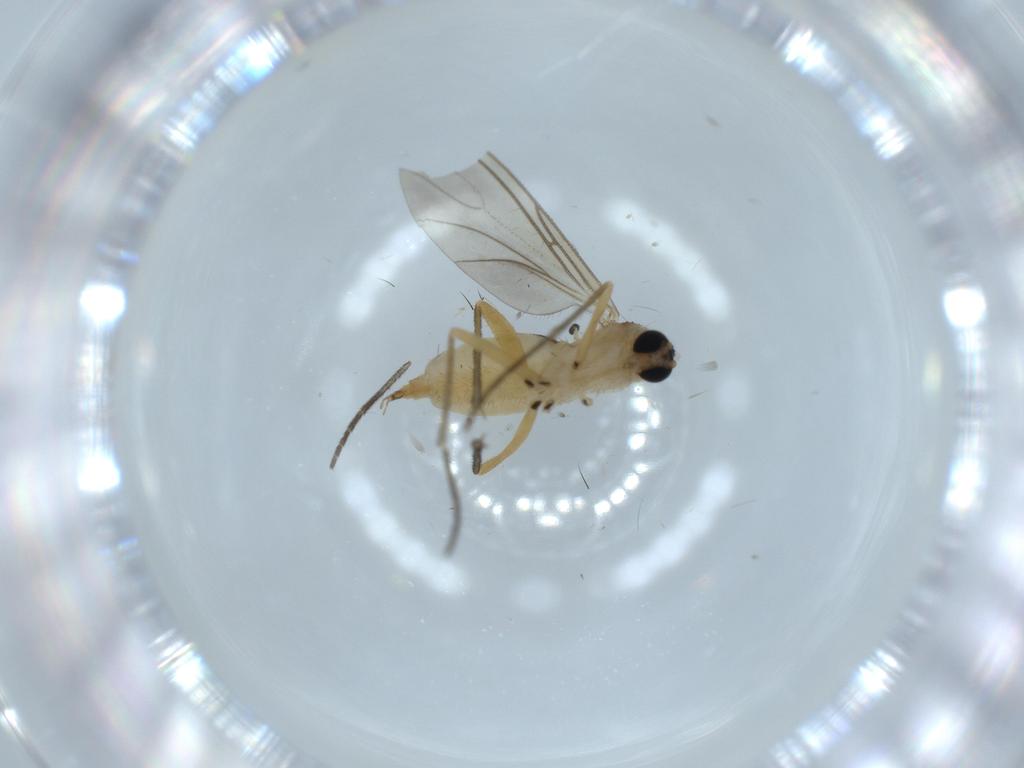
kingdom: Animalia
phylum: Arthropoda
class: Insecta
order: Diptera
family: Sciaridae
